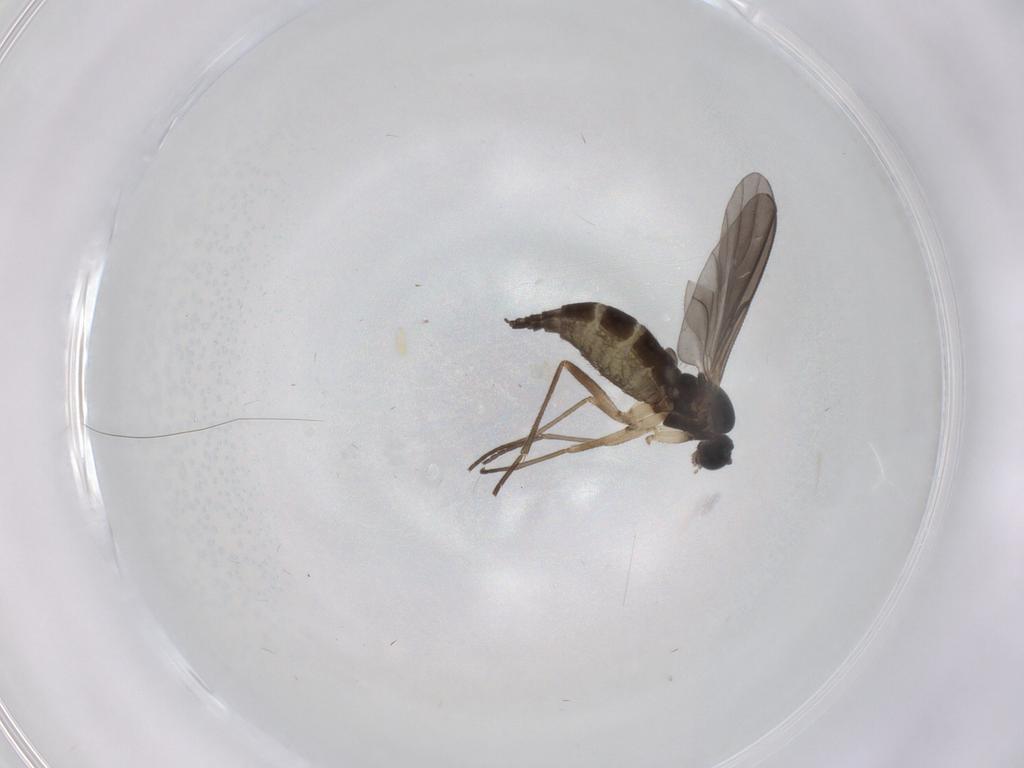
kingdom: Animalia
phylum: Arthropoda
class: Insecta
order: Diptera
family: Sciaridae
